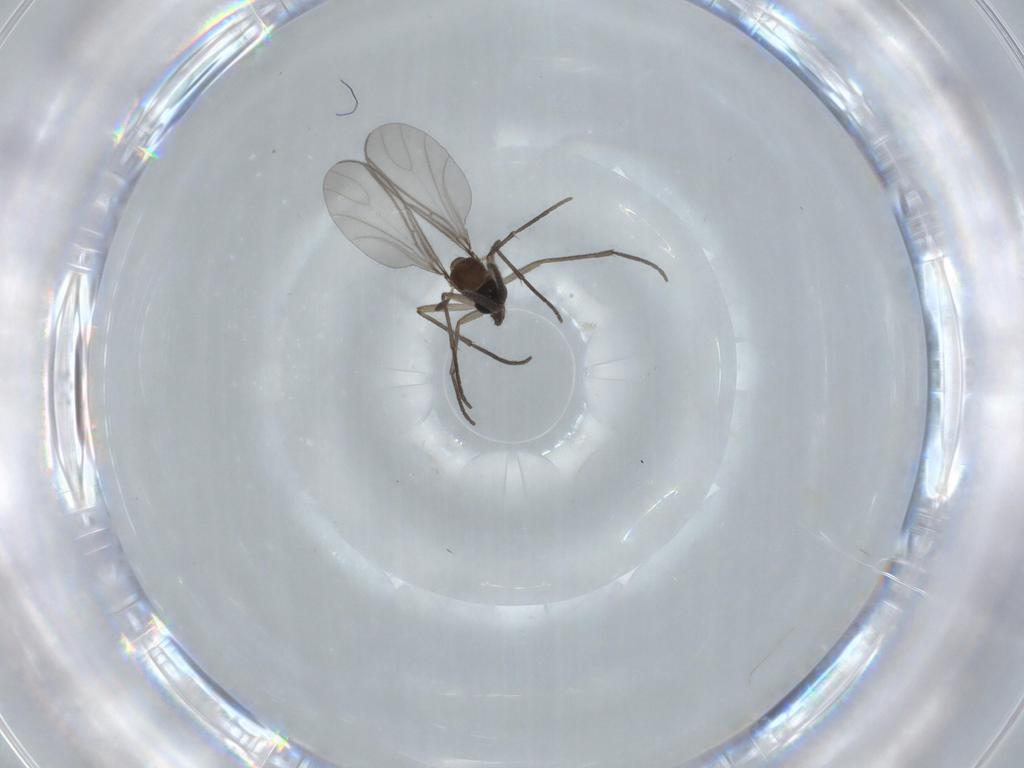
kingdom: Animalia
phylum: Arthropoda
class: Insecta
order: Diptera
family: Sciaridae
